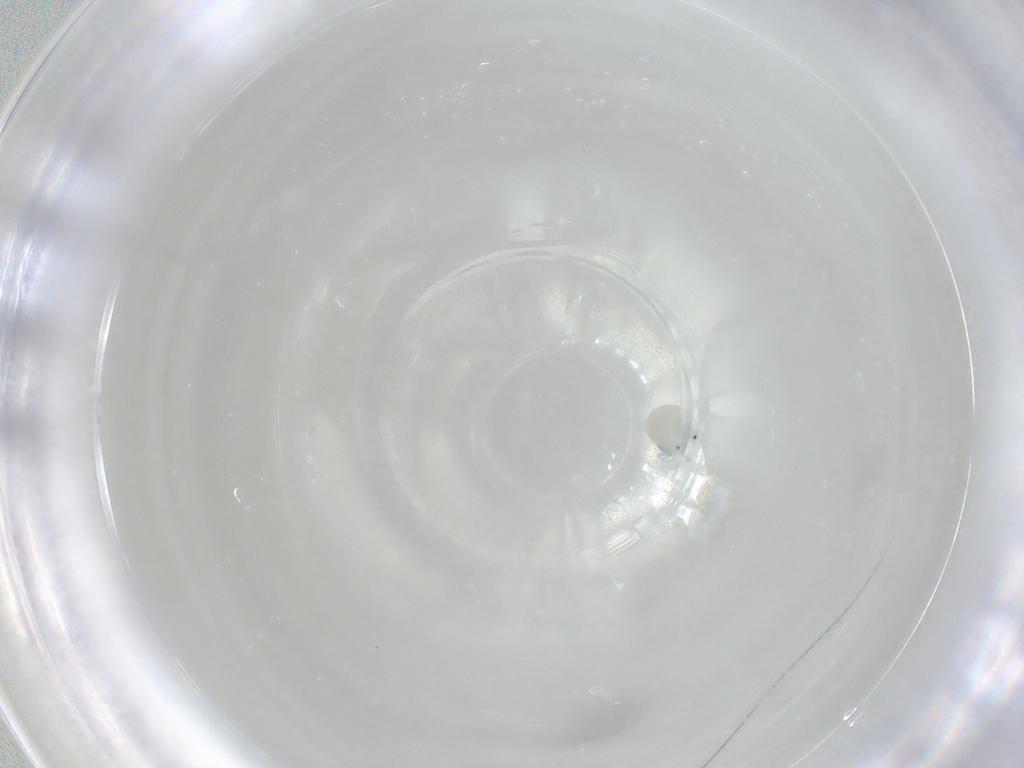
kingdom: Animalia
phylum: Arthropoda
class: Arachnida
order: Trombidiformes
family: Arrenuridae
